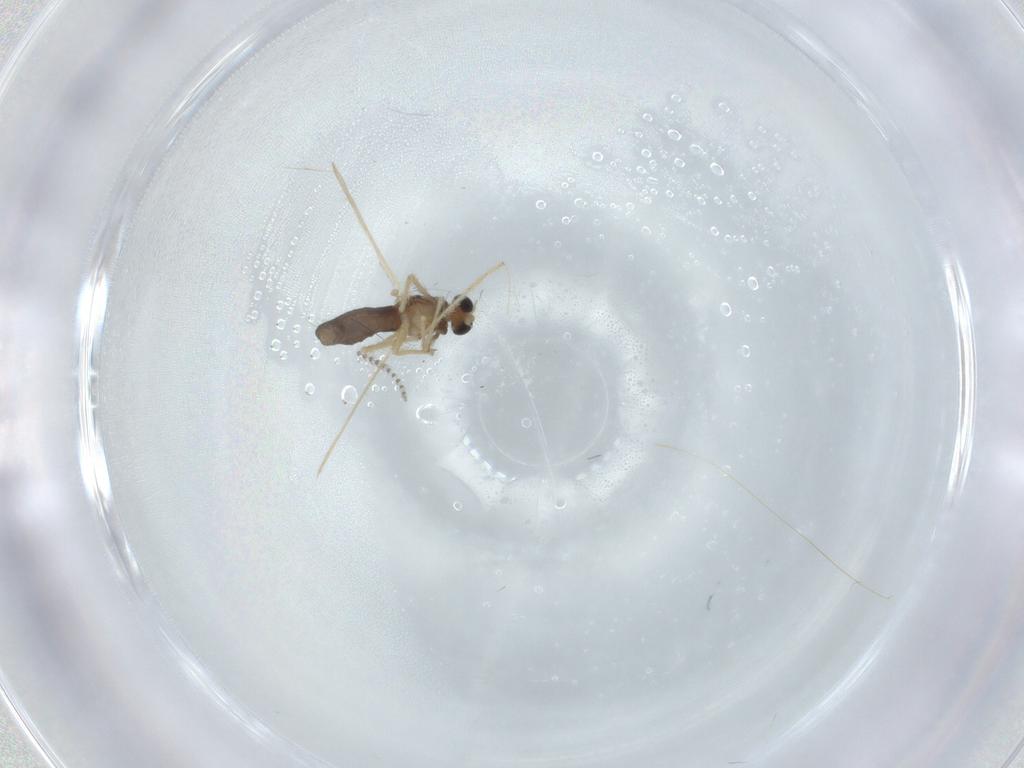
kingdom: Animalia
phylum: Arthropoda
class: Insecta
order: Diptera
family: Chironomidae
